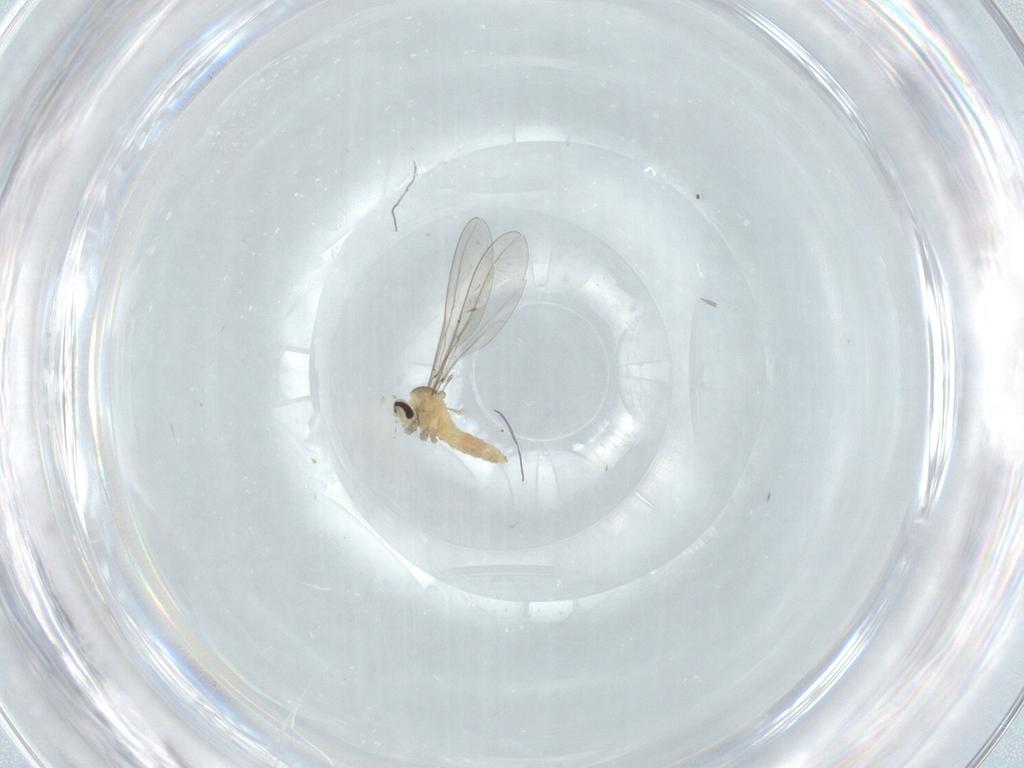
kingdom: Animalia
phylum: Arthropoda
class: Insecta
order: Diptera
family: Cecidomyiidae
